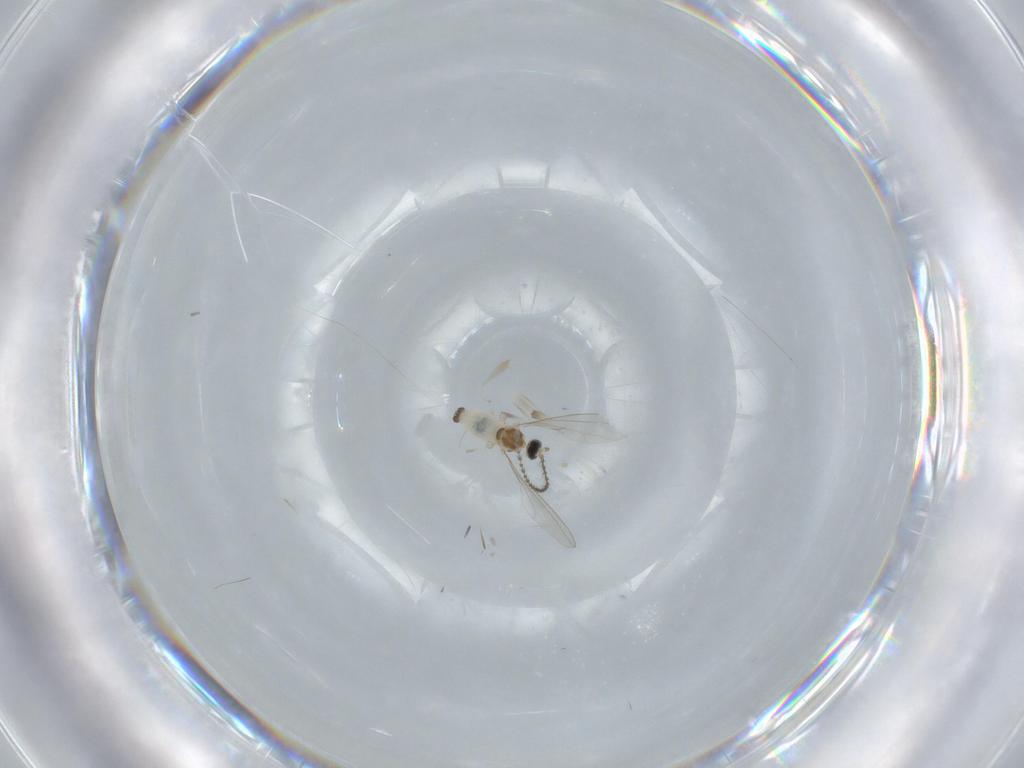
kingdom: Animalia
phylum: Arthropoda
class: Insecta
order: Diptera
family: Cecidomyiidae
